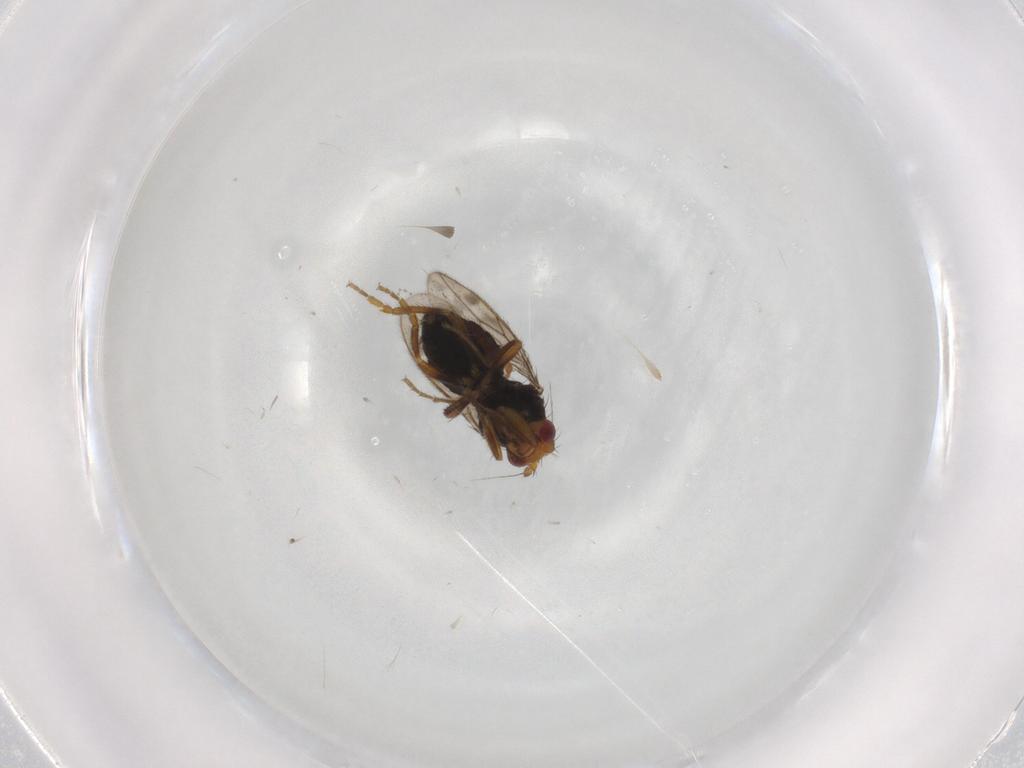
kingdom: Animalia
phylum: Arthropoda
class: Insecta
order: Diptera
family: Sphaeroceridae
